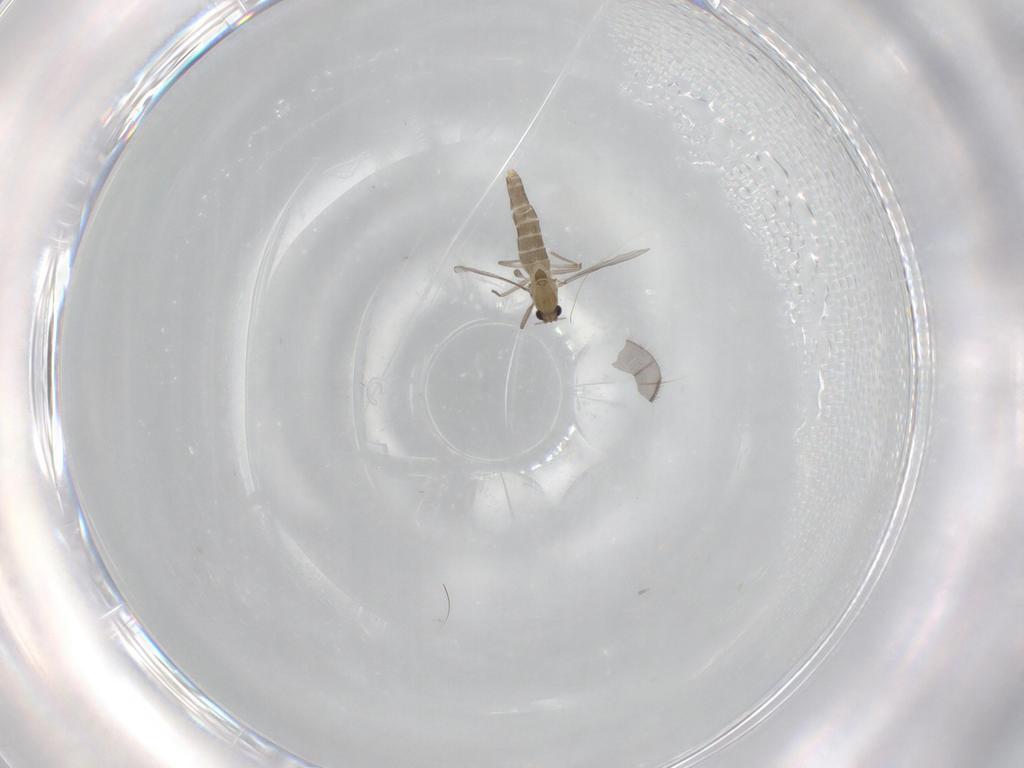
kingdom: Animalia
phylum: Arthropoda
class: Insecta
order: Diptera
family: Chironomidae
